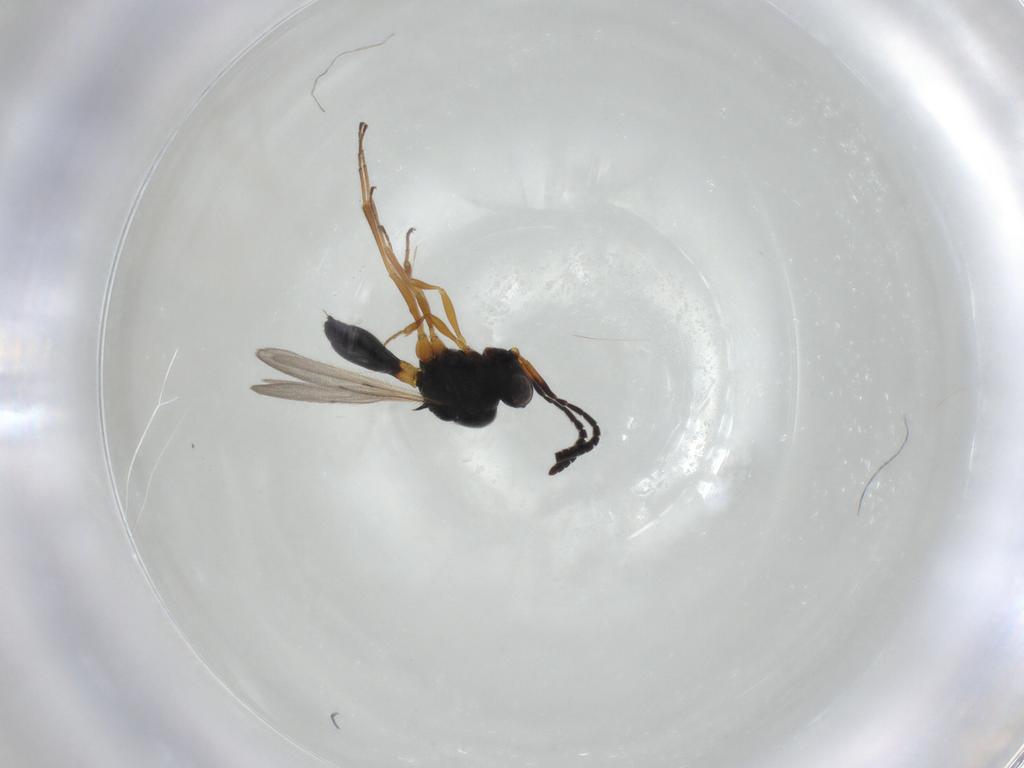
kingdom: Animalia
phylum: Arthropoda
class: Insecta
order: Hymenoptera
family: Scelionidae
